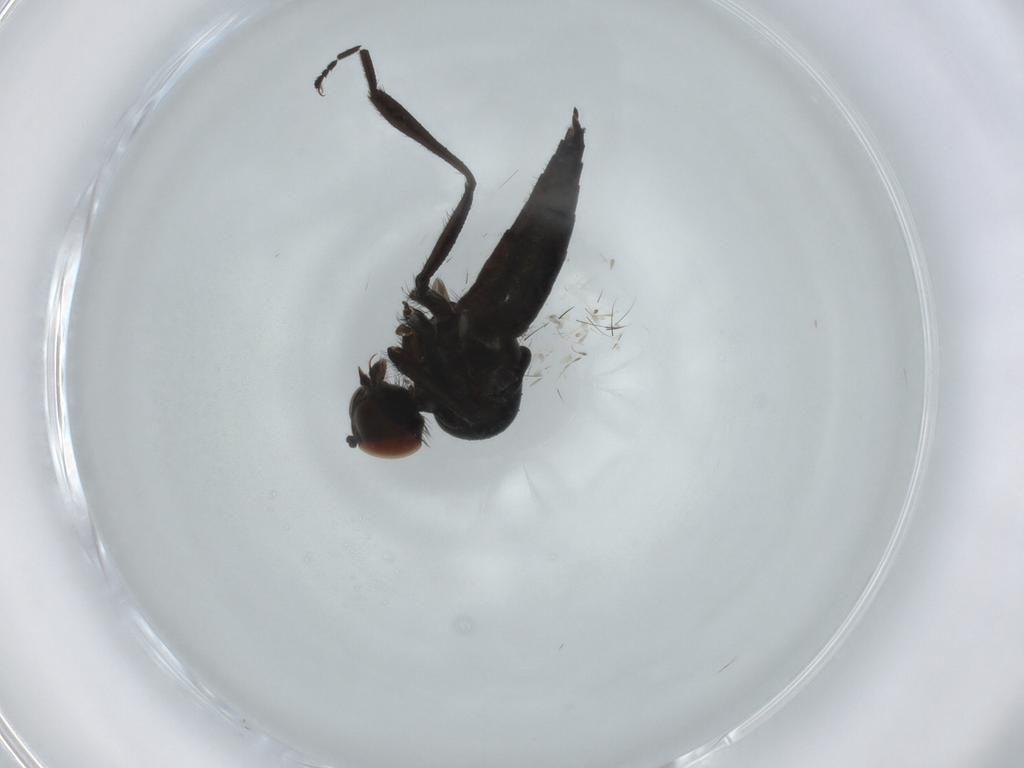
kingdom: Animalia
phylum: Arthropoda
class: Insecta
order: Diptera
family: Hybotidae
